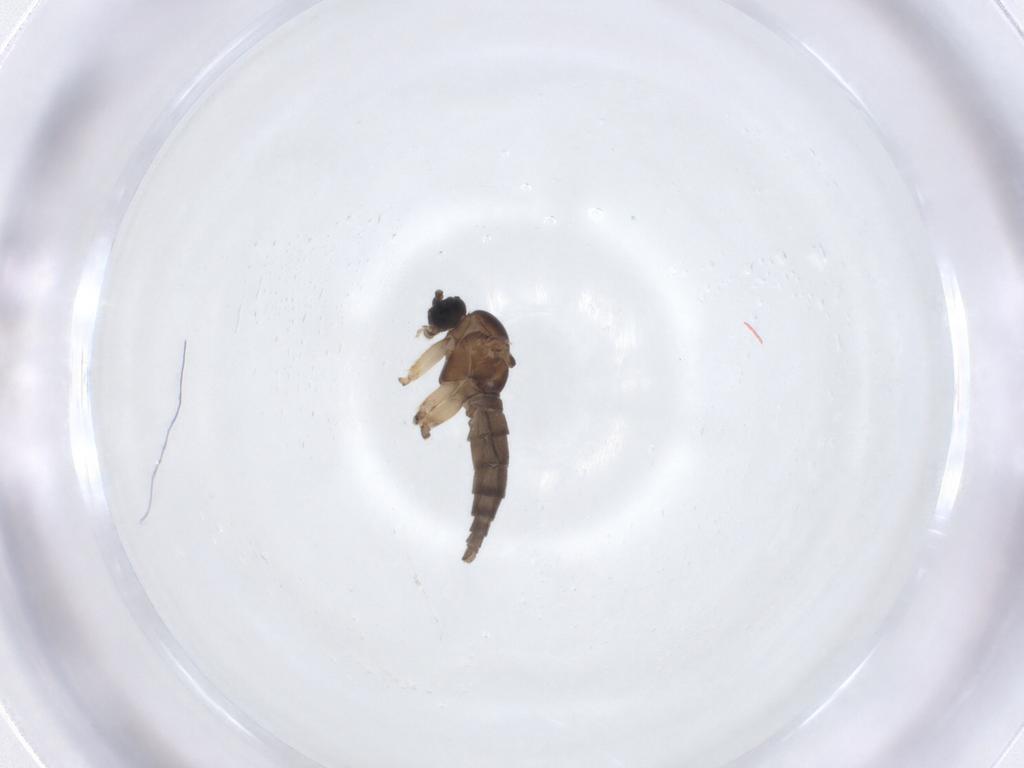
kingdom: Animalia
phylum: Arthropoda
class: Insecta
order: Diptera
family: Sciaridae
